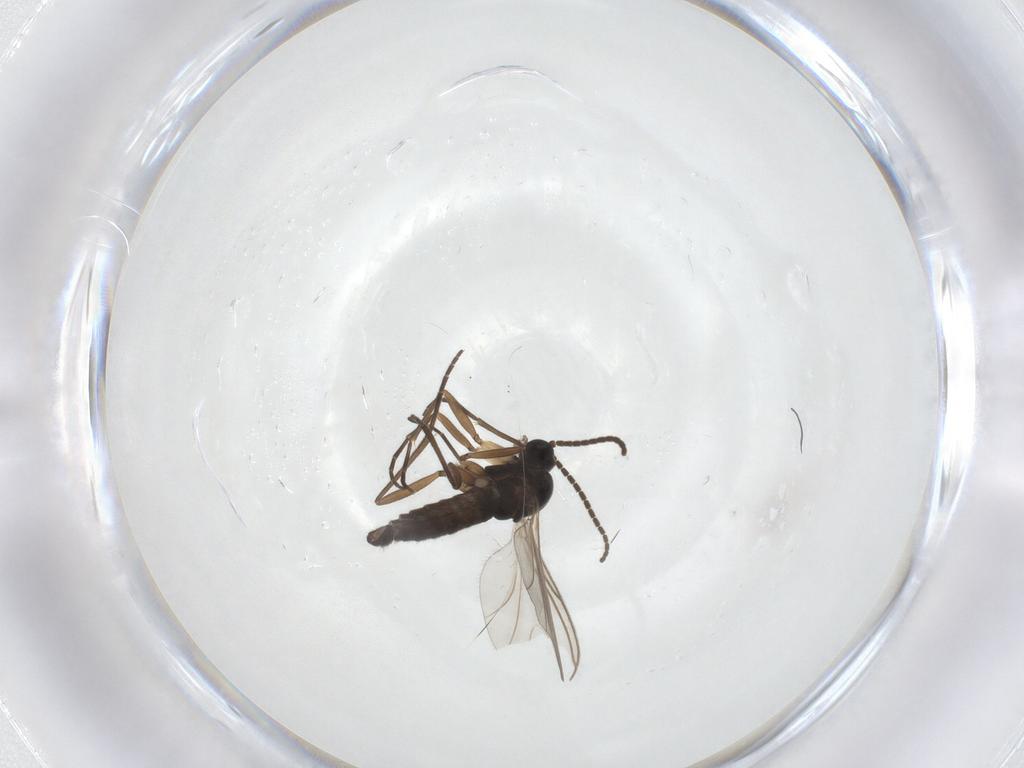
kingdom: Animalia
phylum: Arthropoda
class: Insecta
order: Diptera
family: Sciaridae
